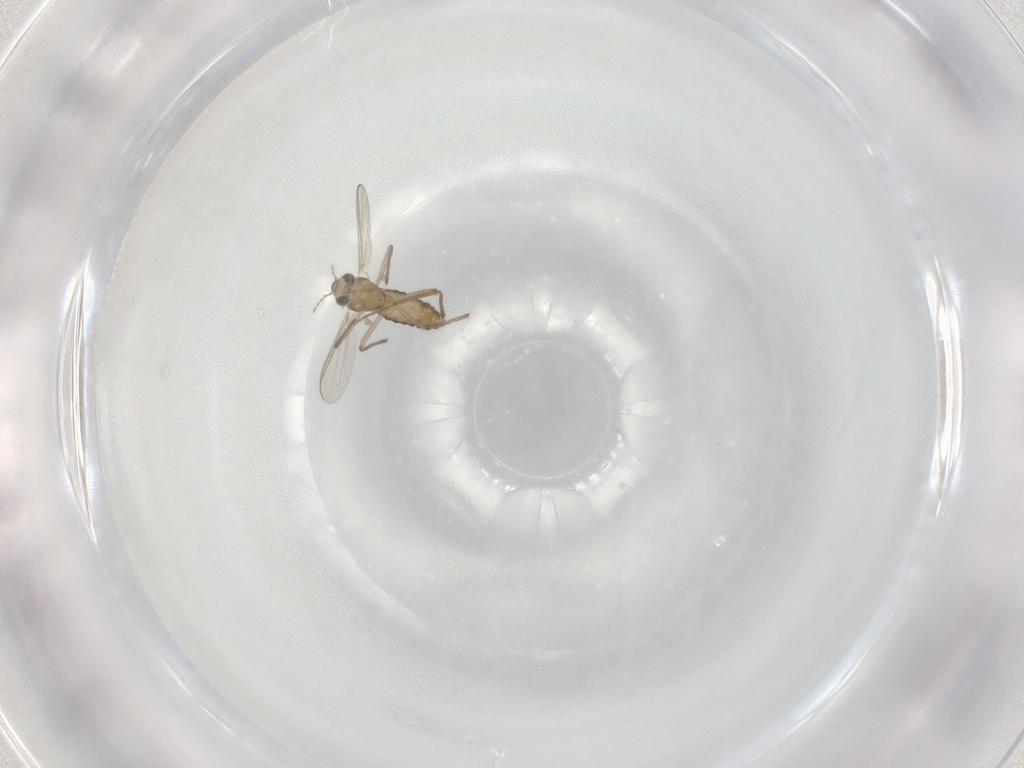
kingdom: Animalia
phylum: Arthropoda
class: Insecta
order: Diptera
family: Chironomidae
